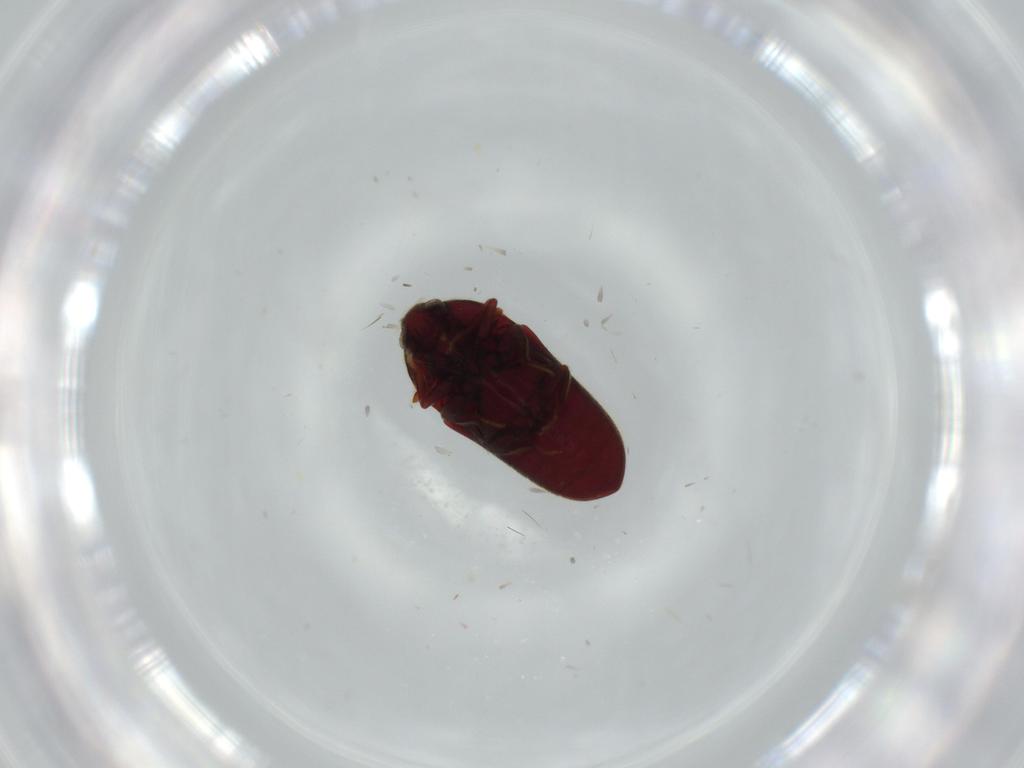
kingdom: Animalia
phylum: Arthropoda
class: Insecta
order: Coleoptera
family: Throscidae
